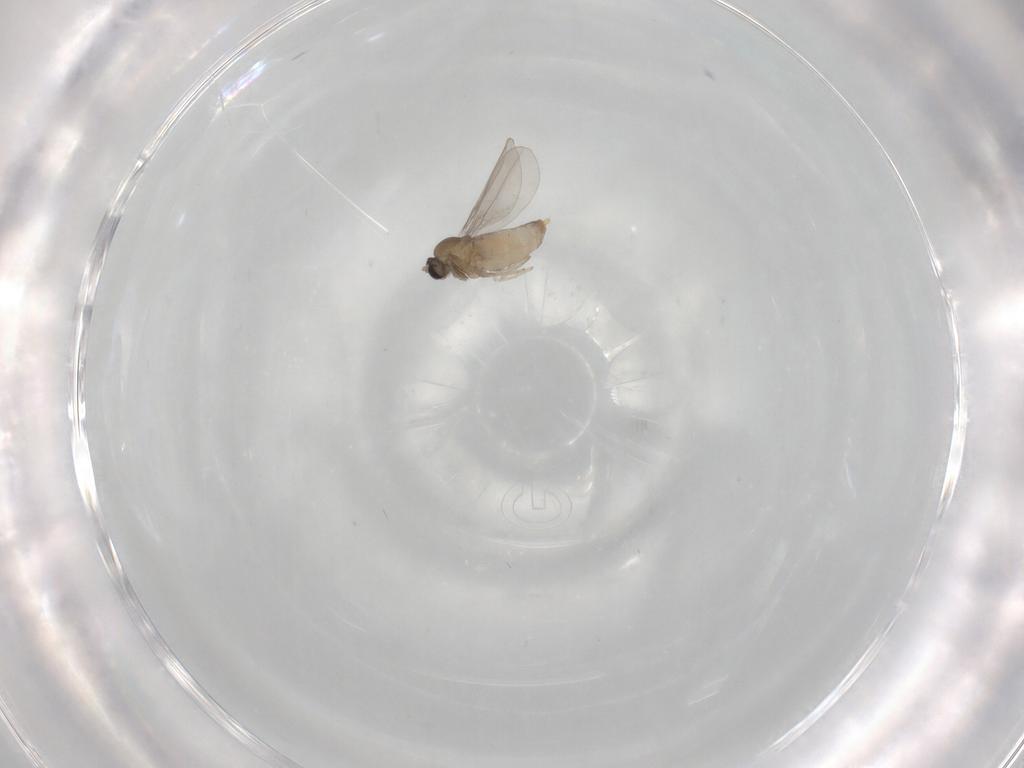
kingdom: Animalia
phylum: Arthropoda
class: Insecta
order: Diptera
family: Cecidomyiidae
